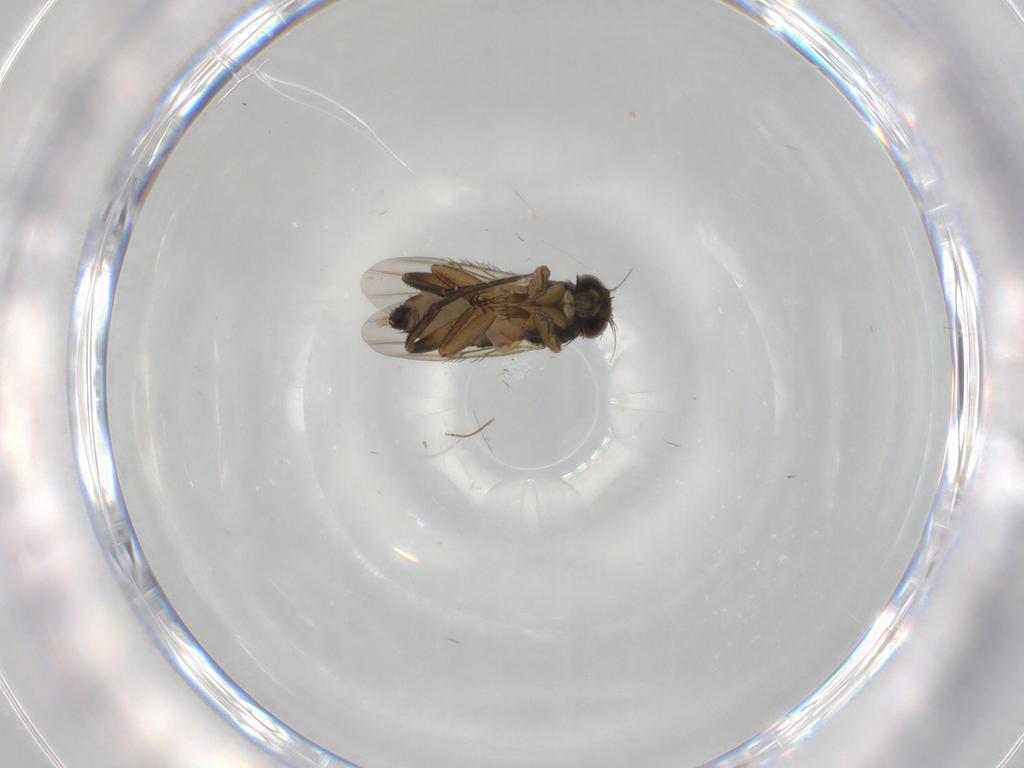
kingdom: Animalia
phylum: Arthropoda
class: Insecta
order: Diptera
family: Phoridae
